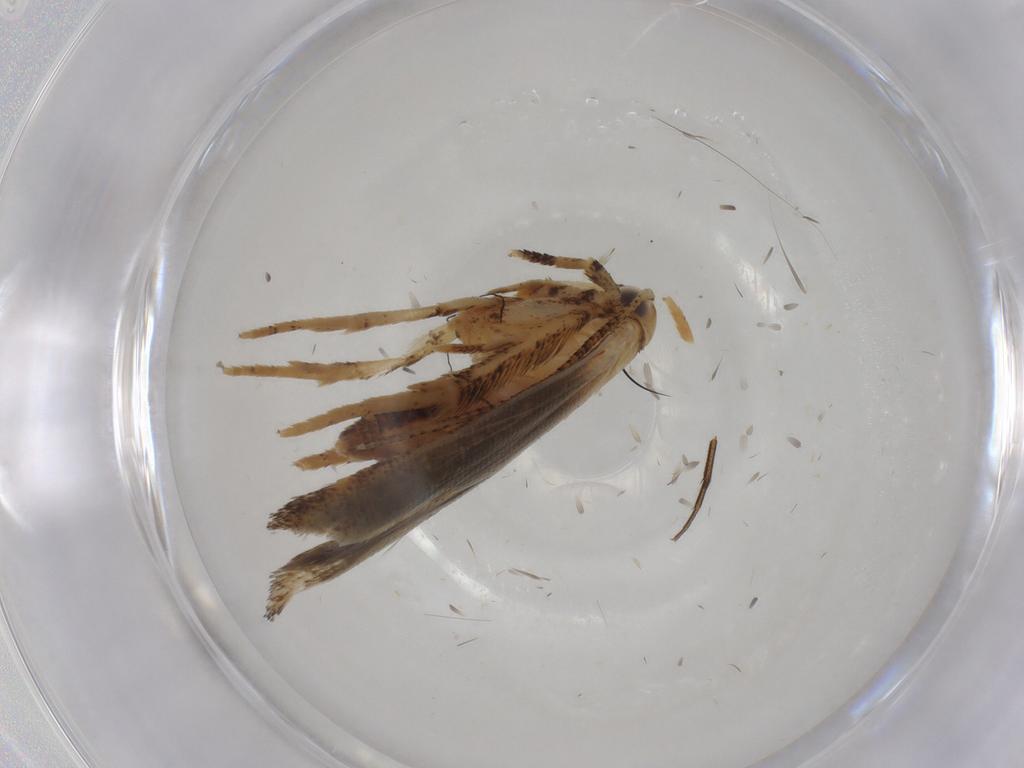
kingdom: Animalia
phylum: Arthropoda
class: Insecta
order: Lepidoptera
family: Gelechiidae
